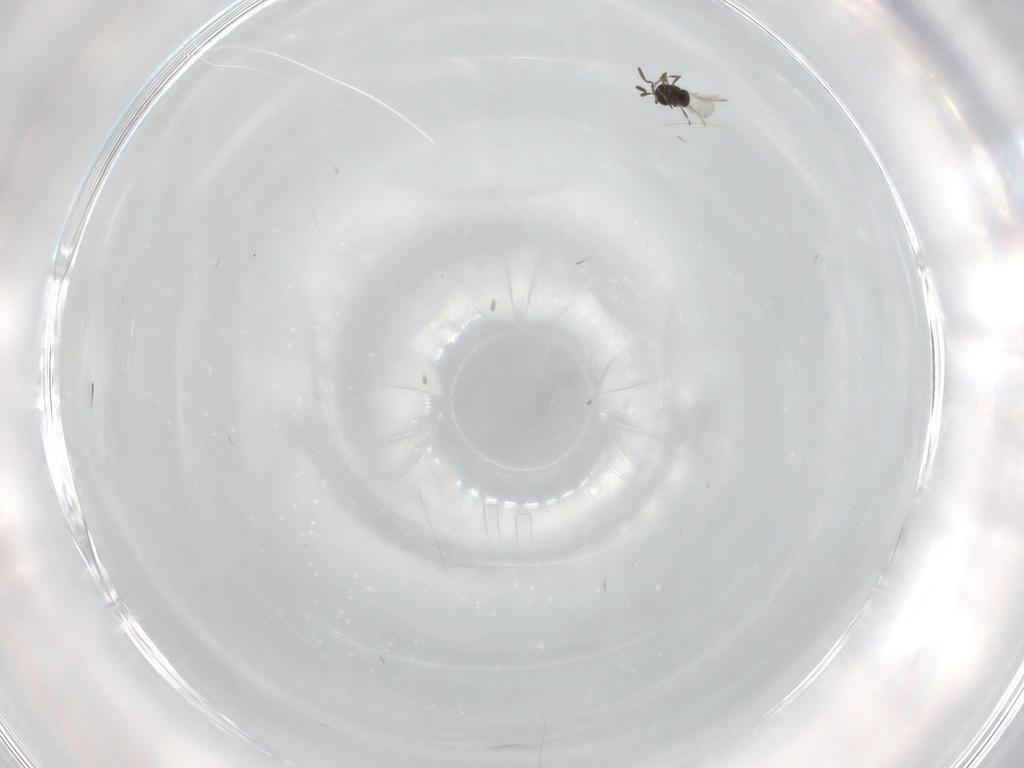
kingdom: Animalia
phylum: Arthropoda
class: Insecta
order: Hymenoptera
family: Scelionidae
